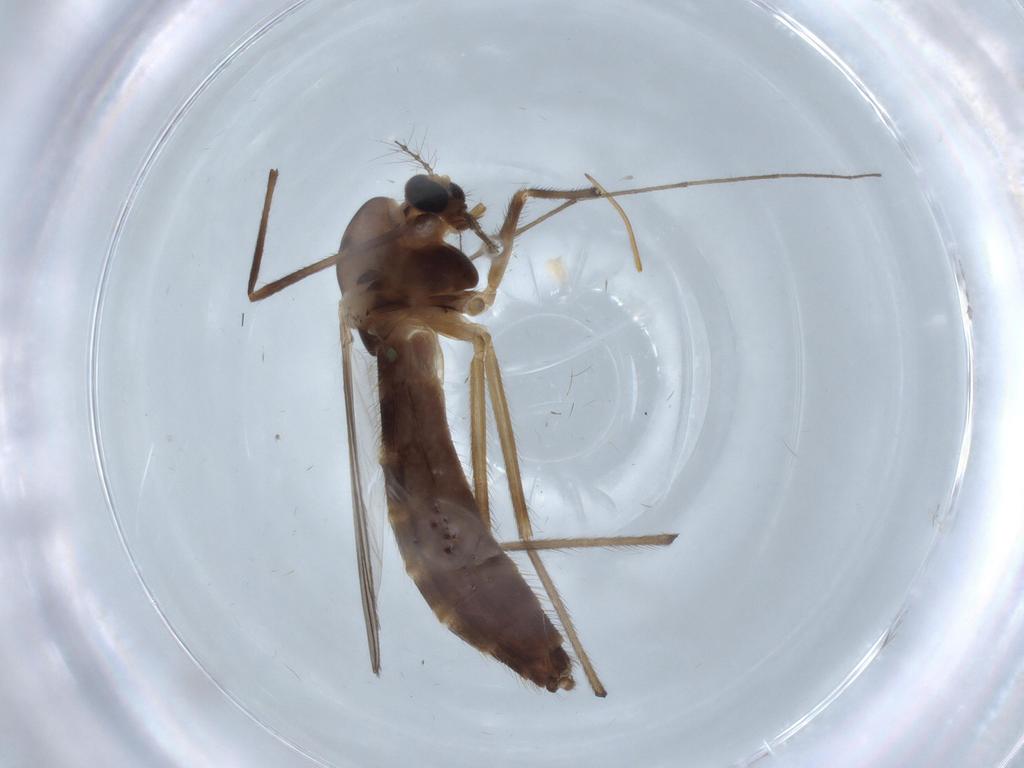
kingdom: Animalia
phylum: Arthropoda
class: Insecta
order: Diptera
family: Chironomidae
